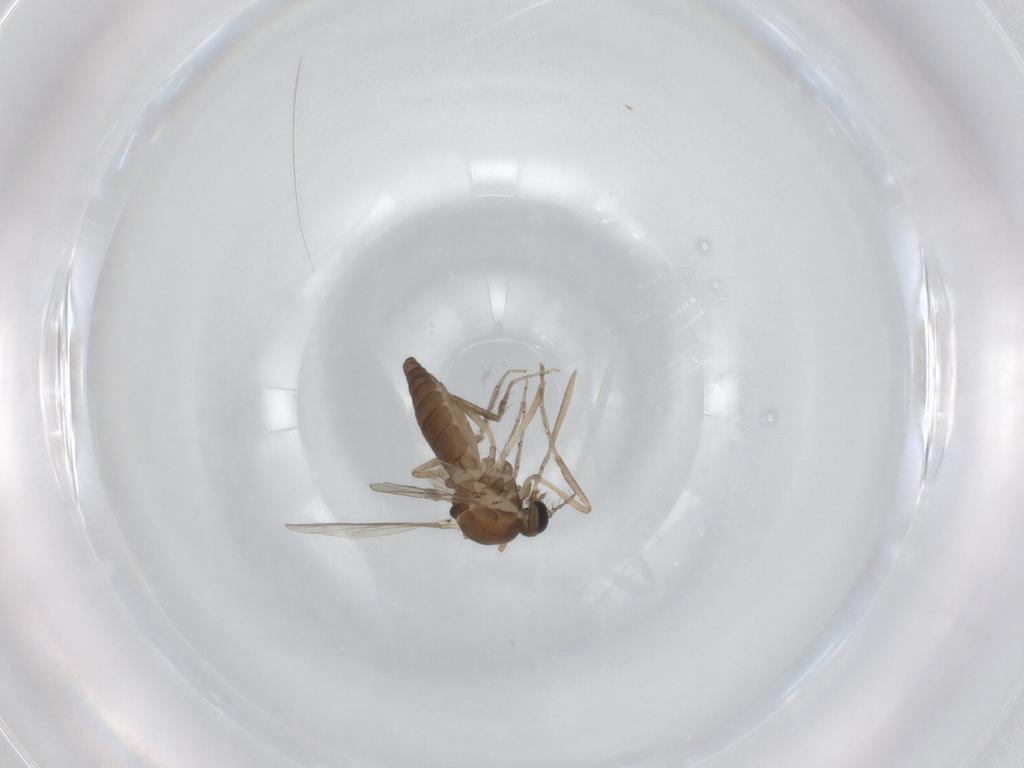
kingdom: Animalia
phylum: Arthropoda
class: Insecta
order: Diptera
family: Ceratopogonidae
